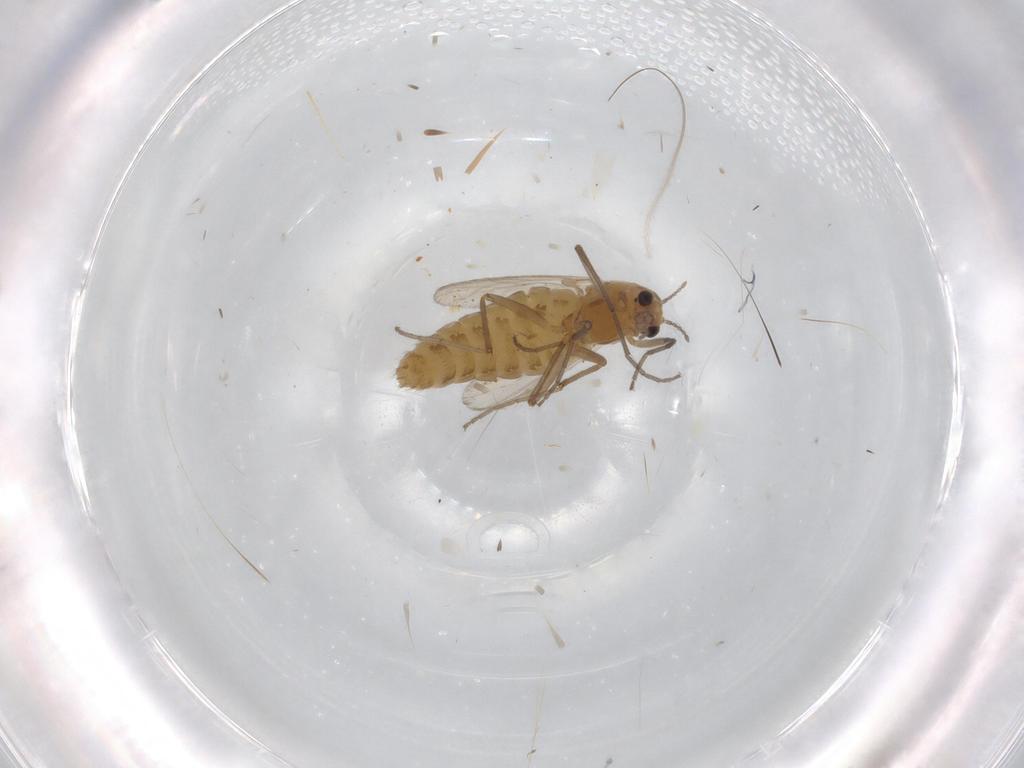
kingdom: Animalia
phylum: Arthropoda
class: Insecta
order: Diptera
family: Chironomidae
